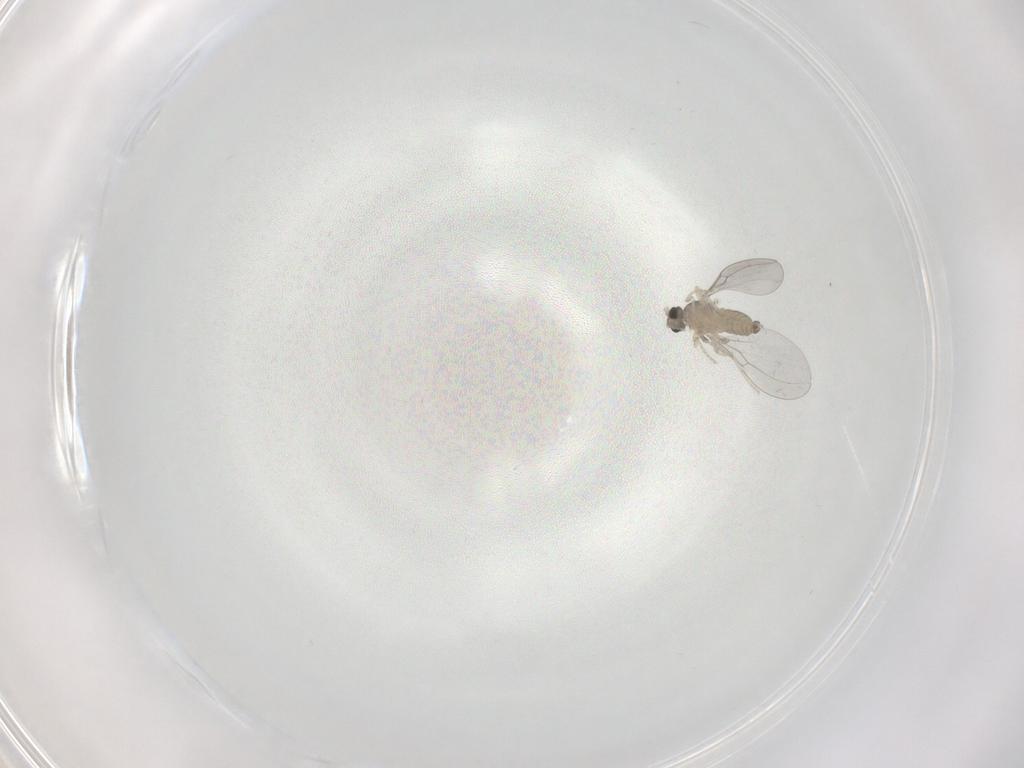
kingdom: Animalia
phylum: Arthropoda
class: Insecta
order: Diptera
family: Cecidomyiidae
